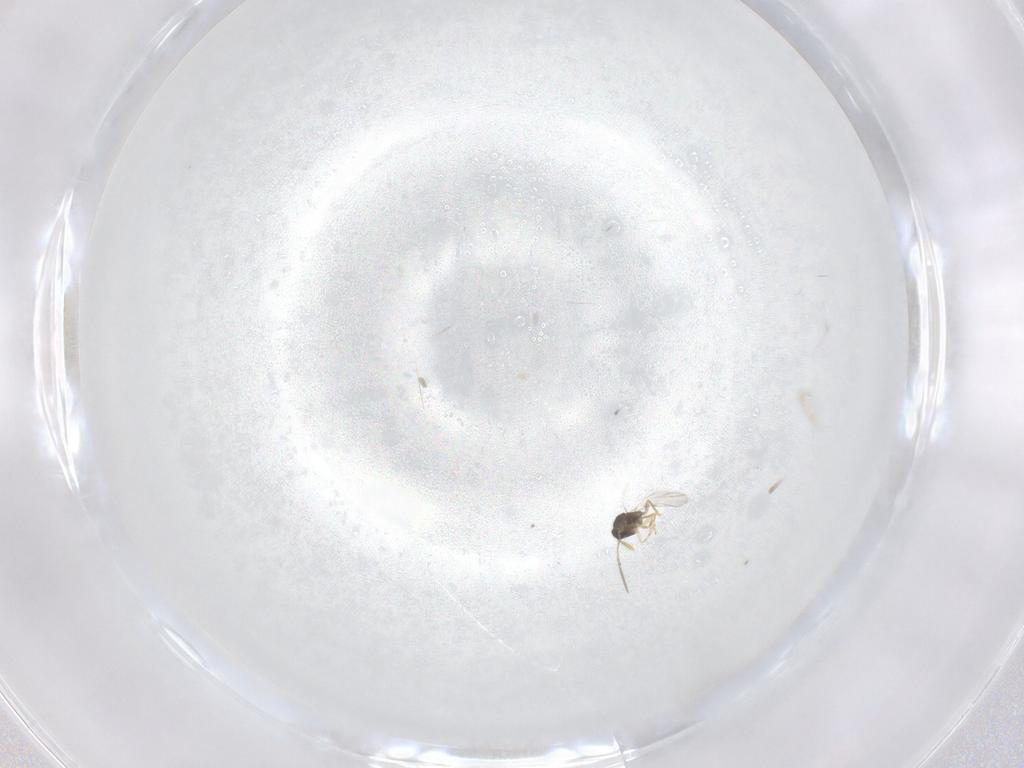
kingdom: Animalia
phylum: Arthropoda
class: Insecta
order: Hymenoptera
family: Encyrtidae
